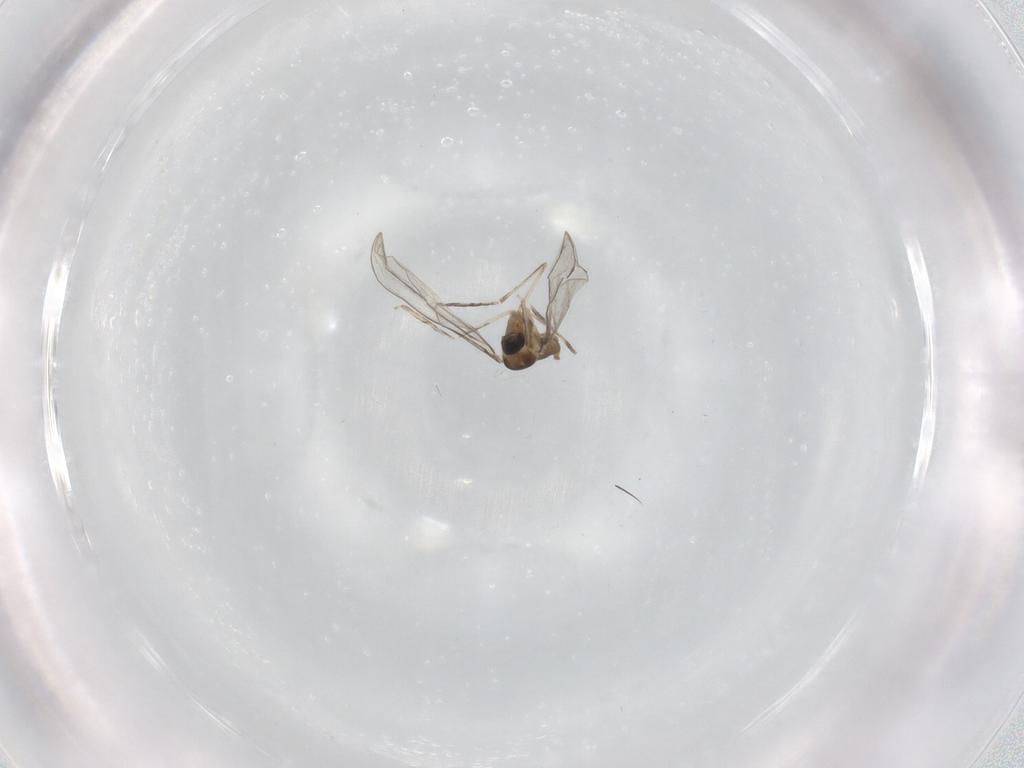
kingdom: Animalia
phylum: Arthropoda
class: Insecta
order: Diptera
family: Cecidomyiidae
